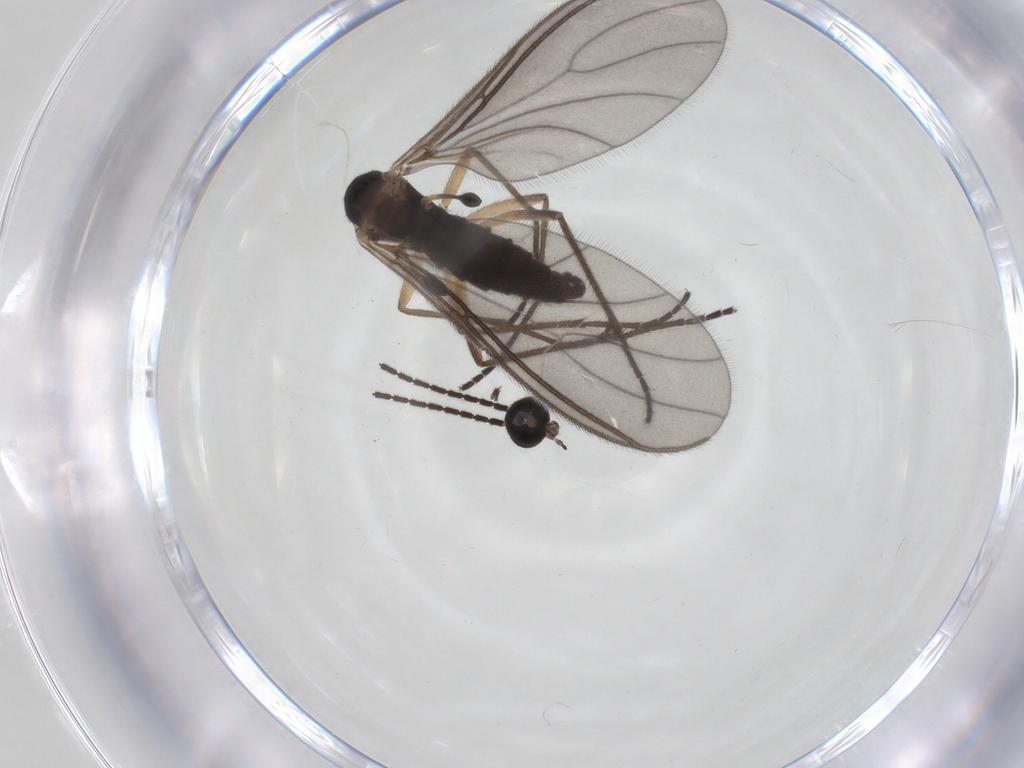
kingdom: Animalia
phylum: Arthropoda
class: Insecta
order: Diptera
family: Sciaridae
